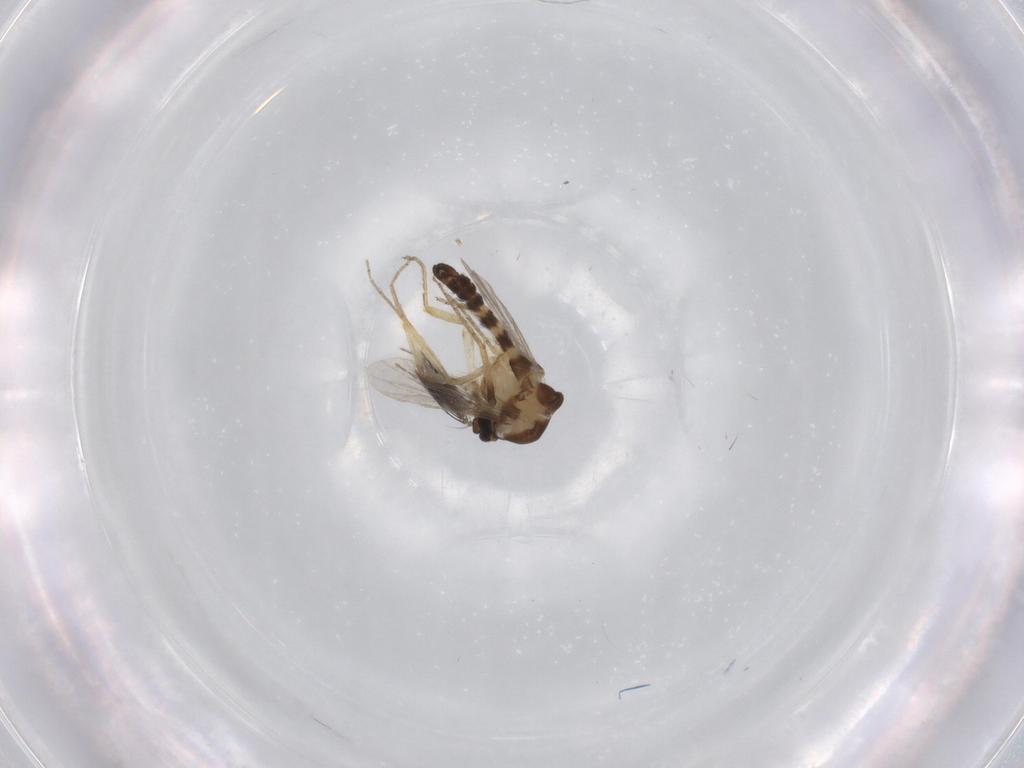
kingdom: Animalia
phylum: Arthropoda
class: Insecta
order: Diptera
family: Ceratopogonidae
